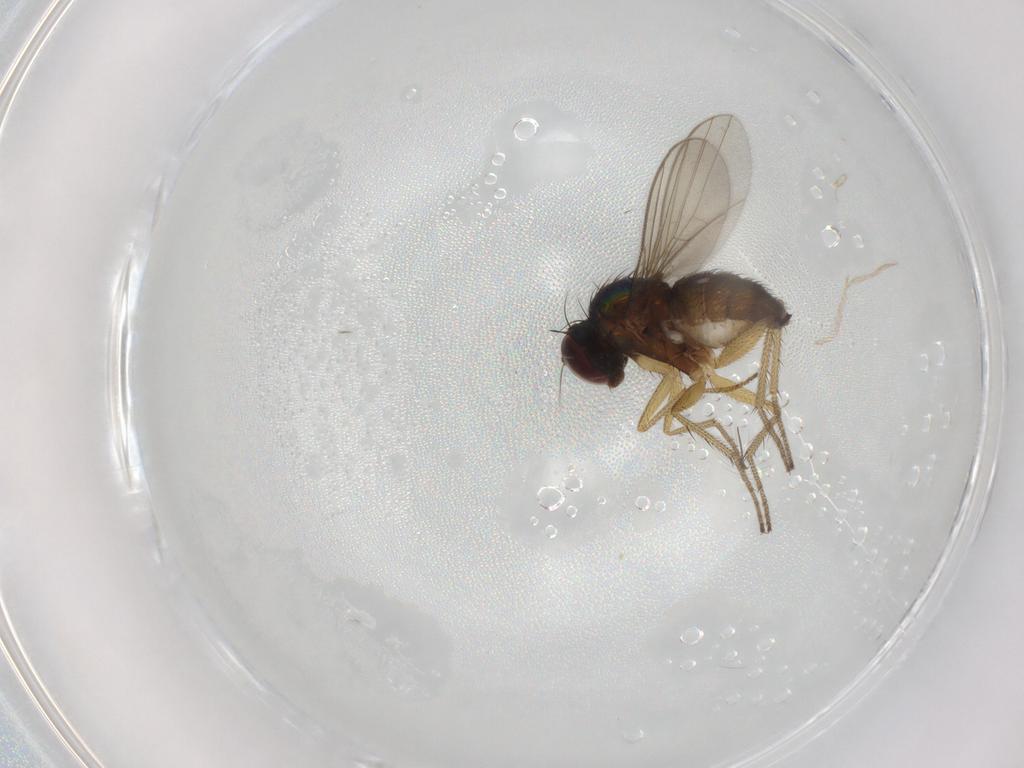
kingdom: Animalia
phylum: Arthropoda
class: Insecta
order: Diptera
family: Dolichopodidae
